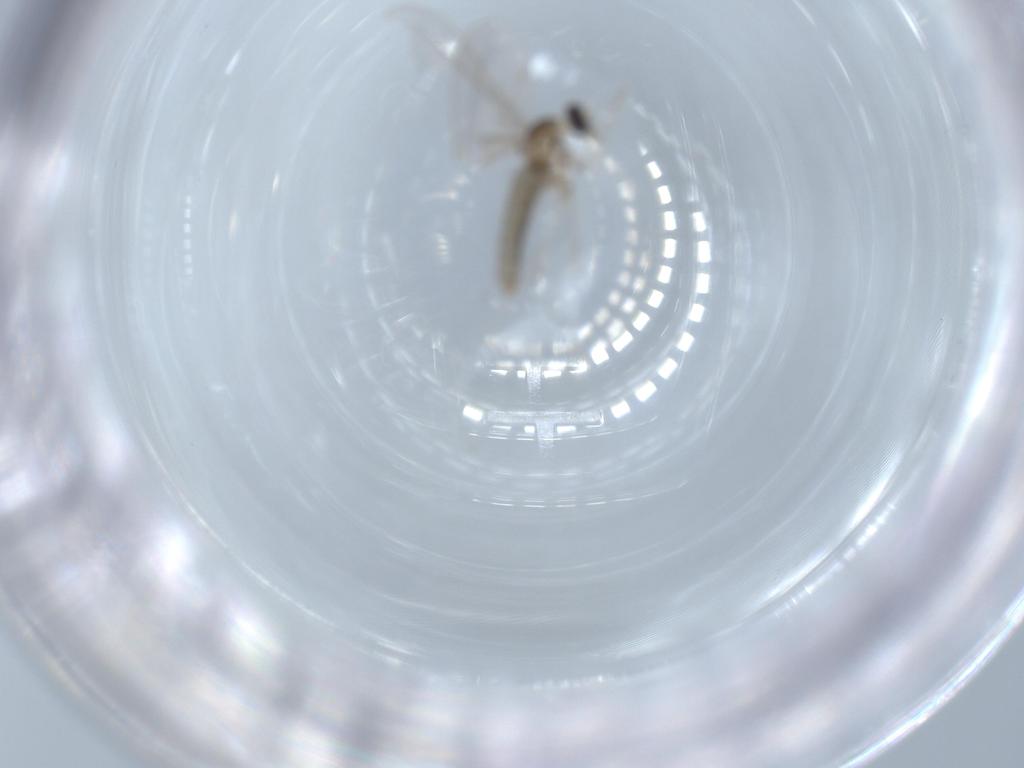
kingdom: Animalia
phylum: Arthropoda
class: Insecta
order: Diptera
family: Cecidomyiidae
